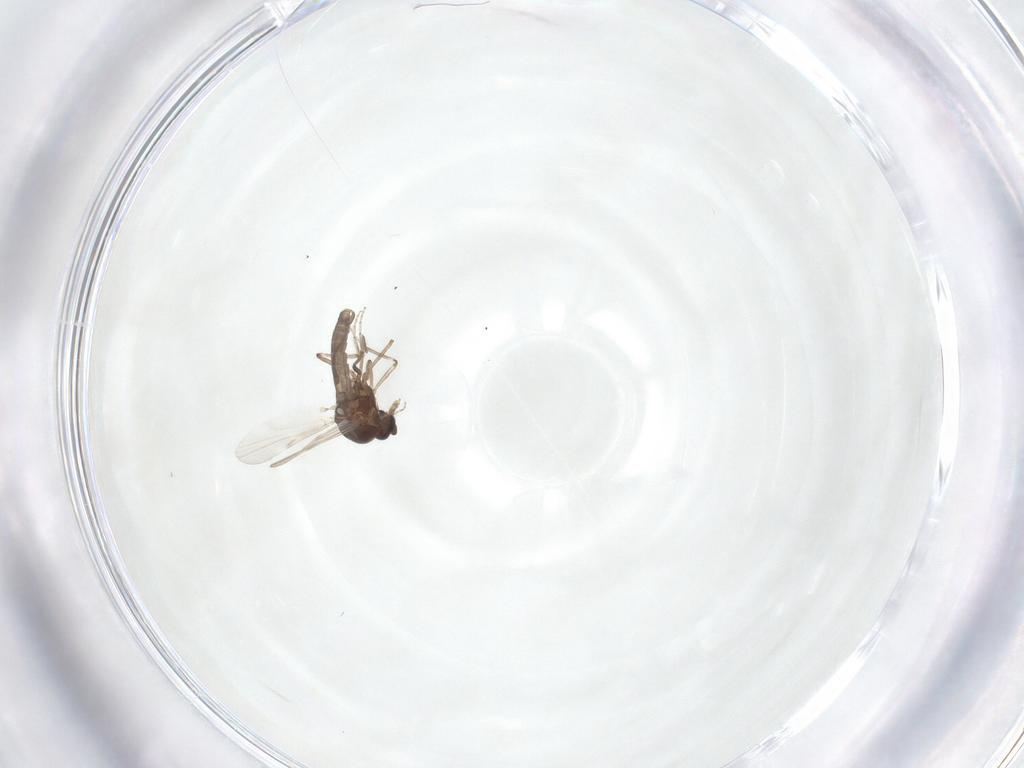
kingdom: Animalia
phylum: Arthropoda
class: Insecta
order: Diptera
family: Ceratopogonidae
